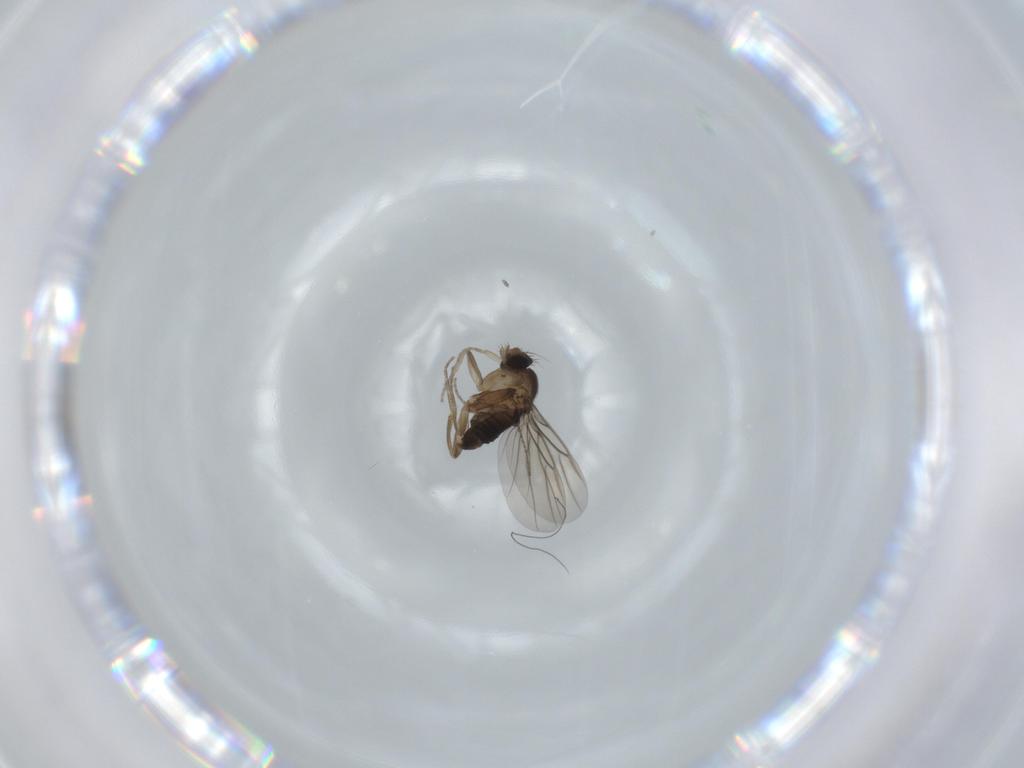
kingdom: Animalia
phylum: Arthropoda
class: Insecta
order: Diptera
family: Phoridae
